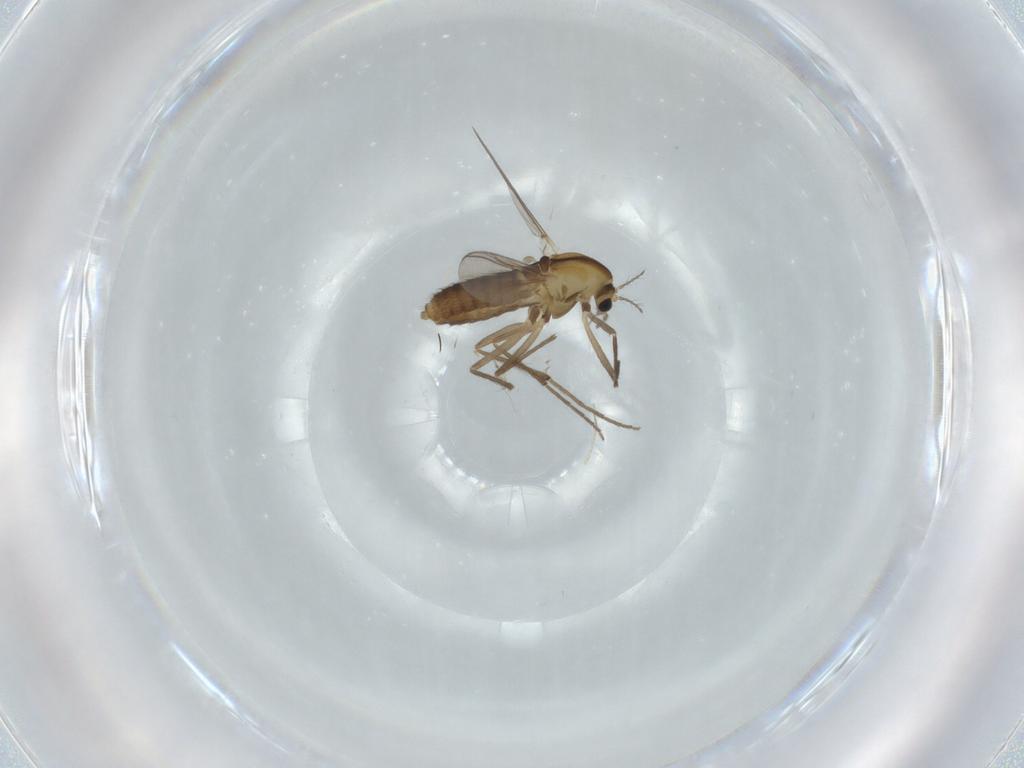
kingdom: Animalia
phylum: Arthropoda
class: Insecta
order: Diptera
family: Chironomidae
